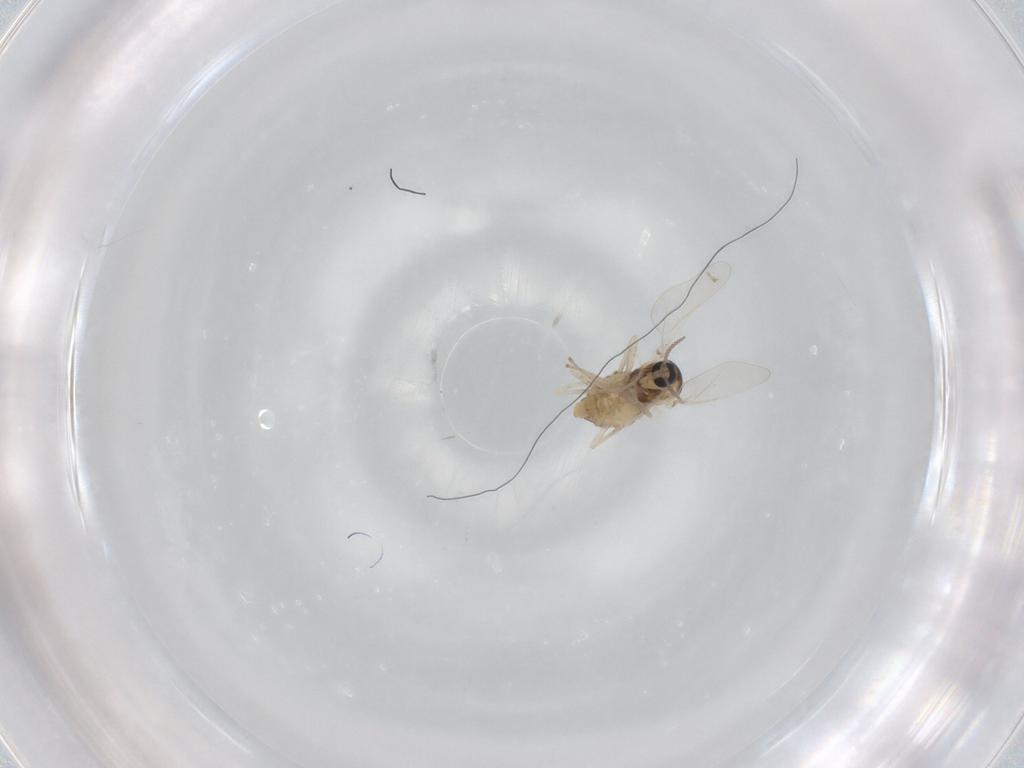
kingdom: Animalia
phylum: Arthropoda
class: Insecta
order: Diptera
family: Cecidomyiidae
